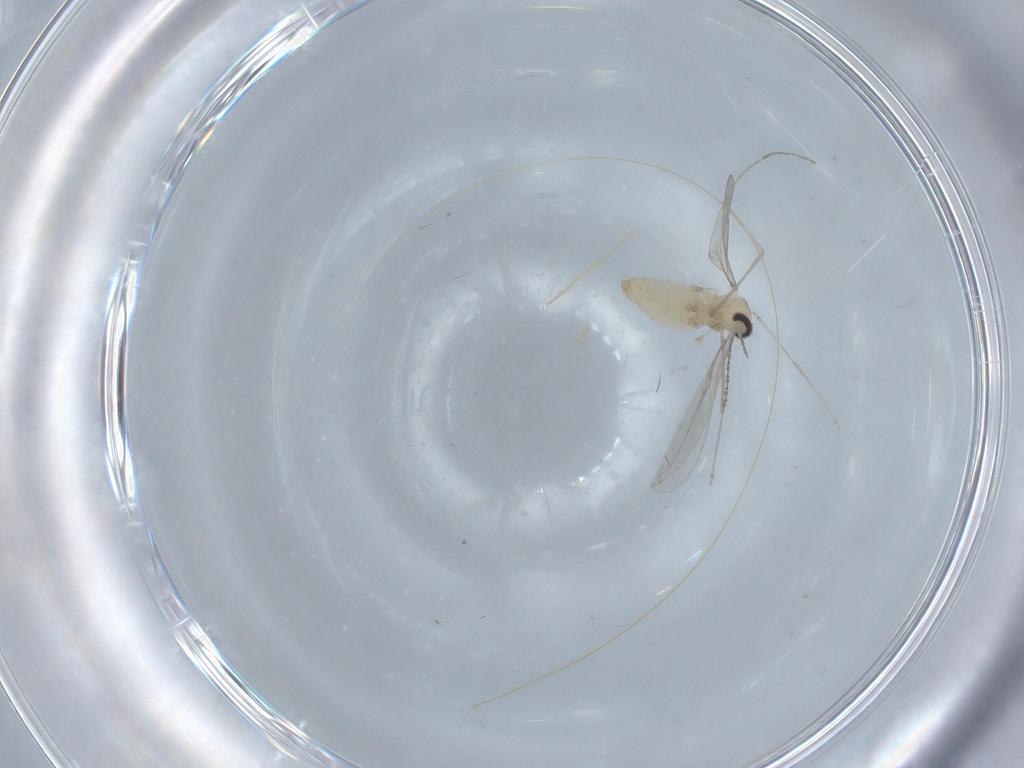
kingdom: Animalia
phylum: Arthropoda
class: Insecta
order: Diptera
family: Cecidomyiidae
